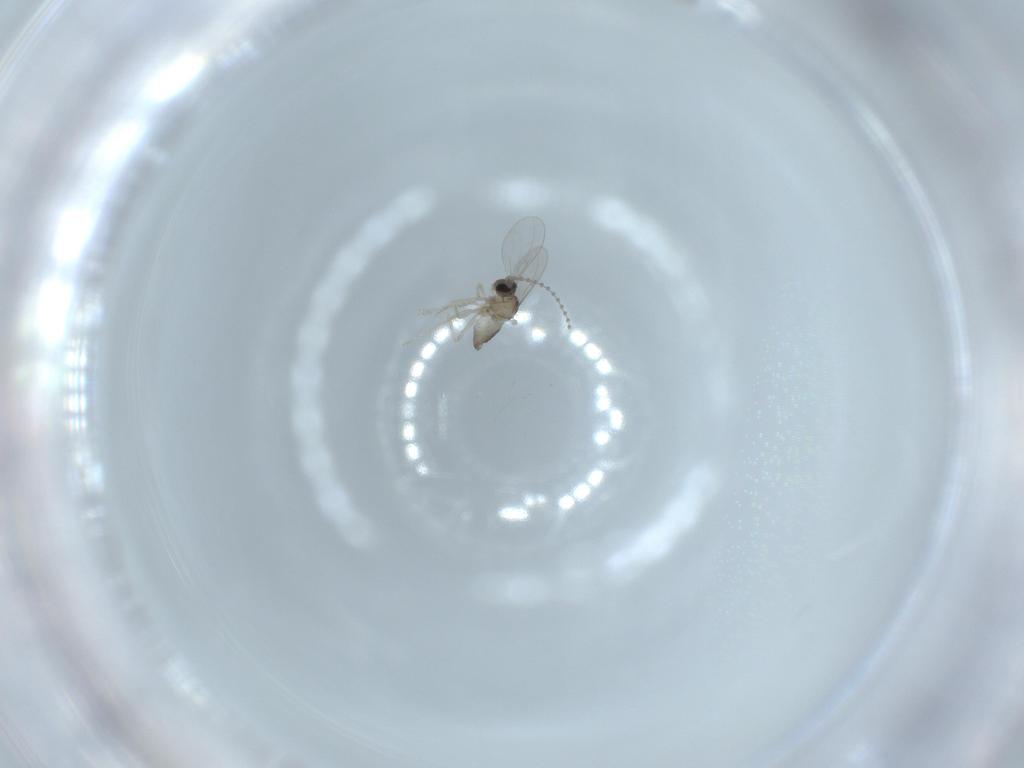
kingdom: Animalia
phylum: Arthropoda
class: Insecta
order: Diptera
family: Cecidomyiidae
